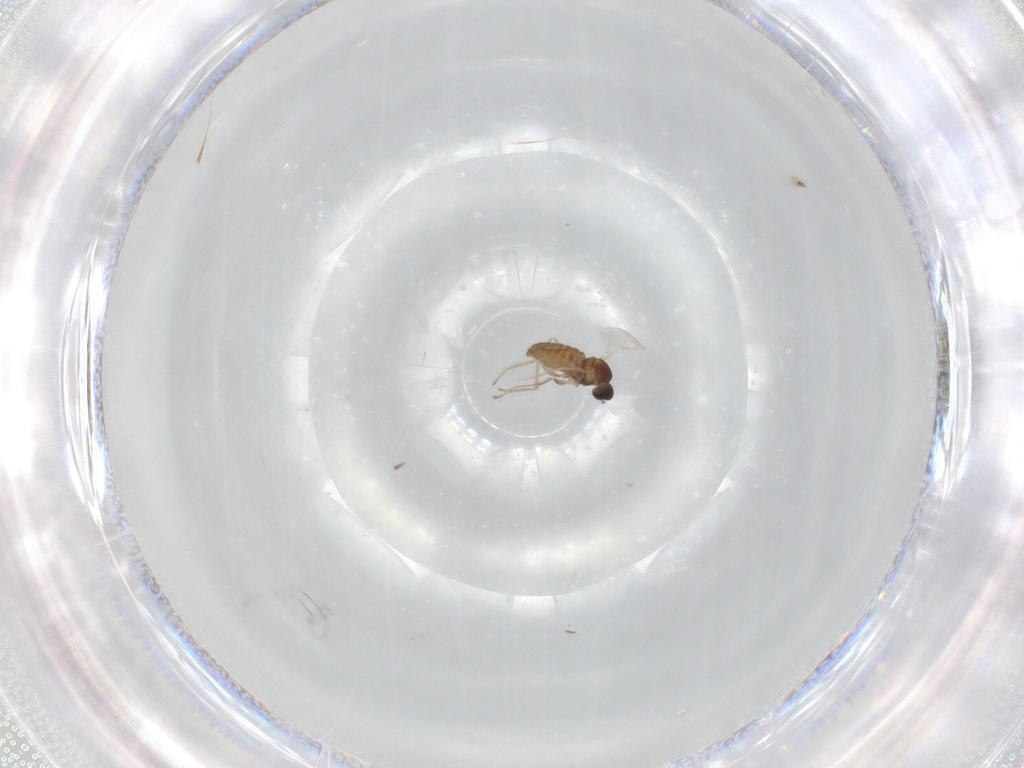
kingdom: Animalia
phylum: Arthropoda
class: Insecta
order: Diptera
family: Cecidomyiidae
